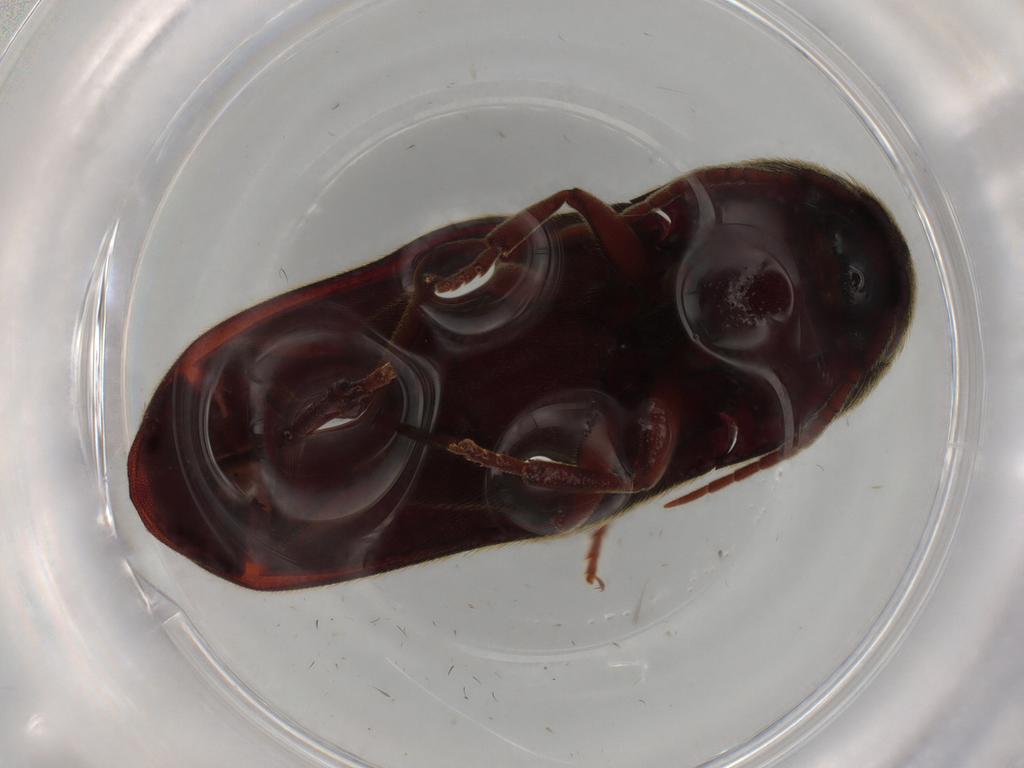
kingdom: Animalia
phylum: Arthropoda
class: Insecta
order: Coleoptera
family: Eucnemidae
